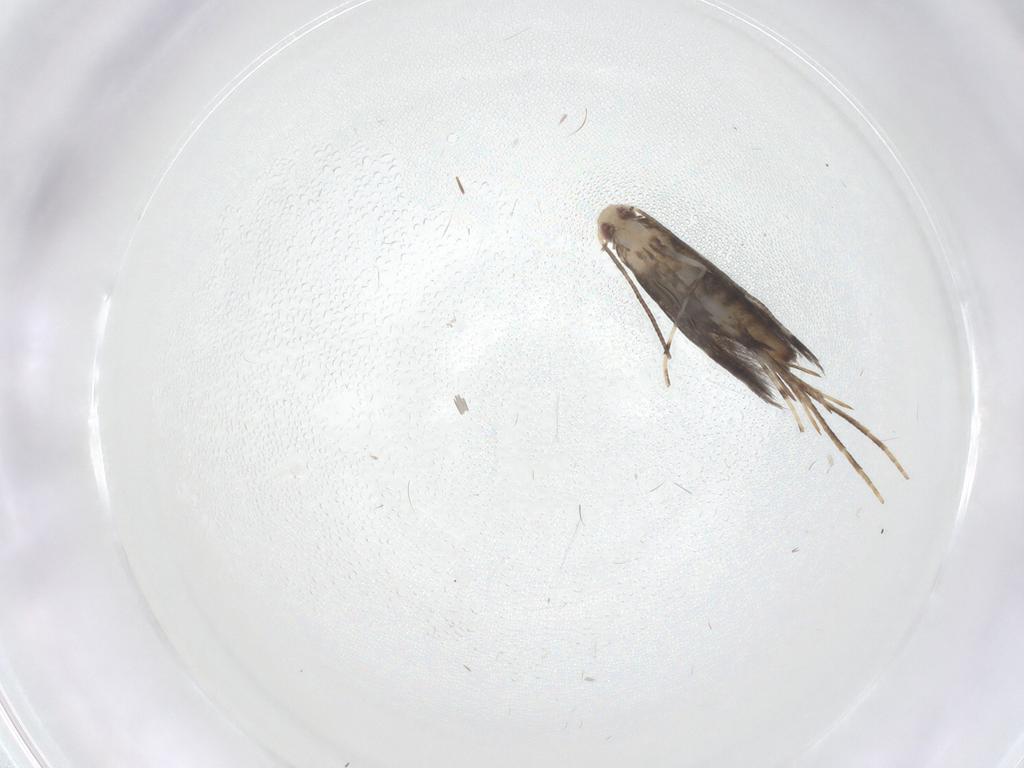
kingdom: Animalia
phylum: Arthropoda
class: Insecta
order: Lepidoptera
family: Gracillariidae
